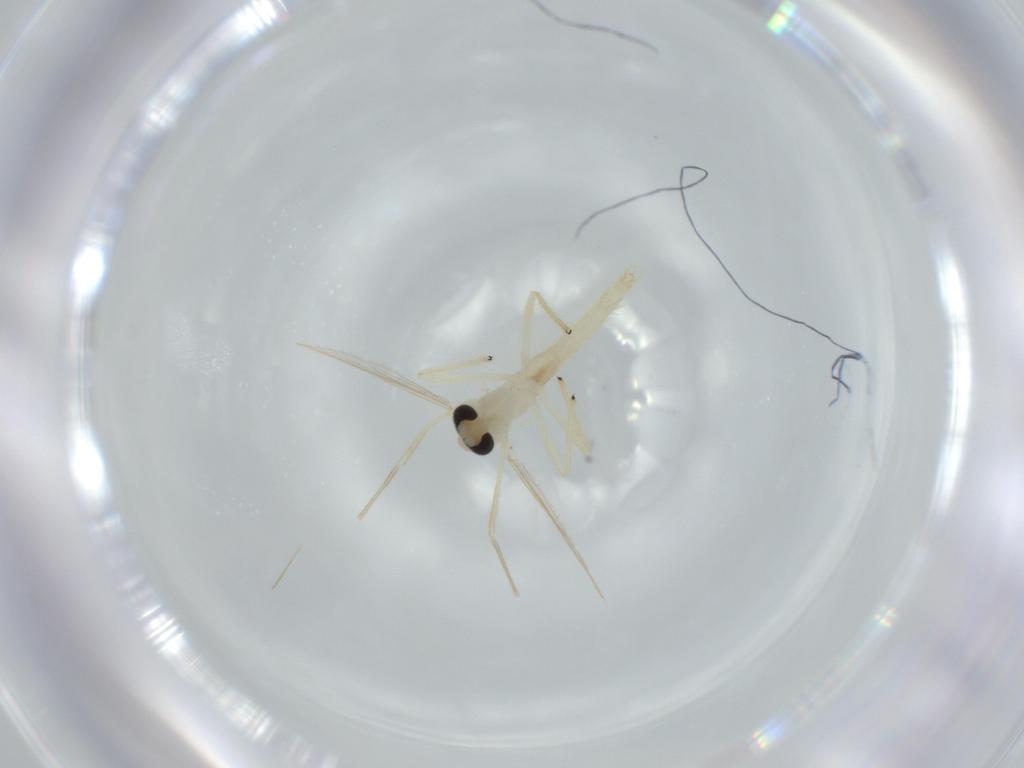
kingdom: Animalia
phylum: Arthropoda
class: Insecta
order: Diptera
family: Chironomidae
